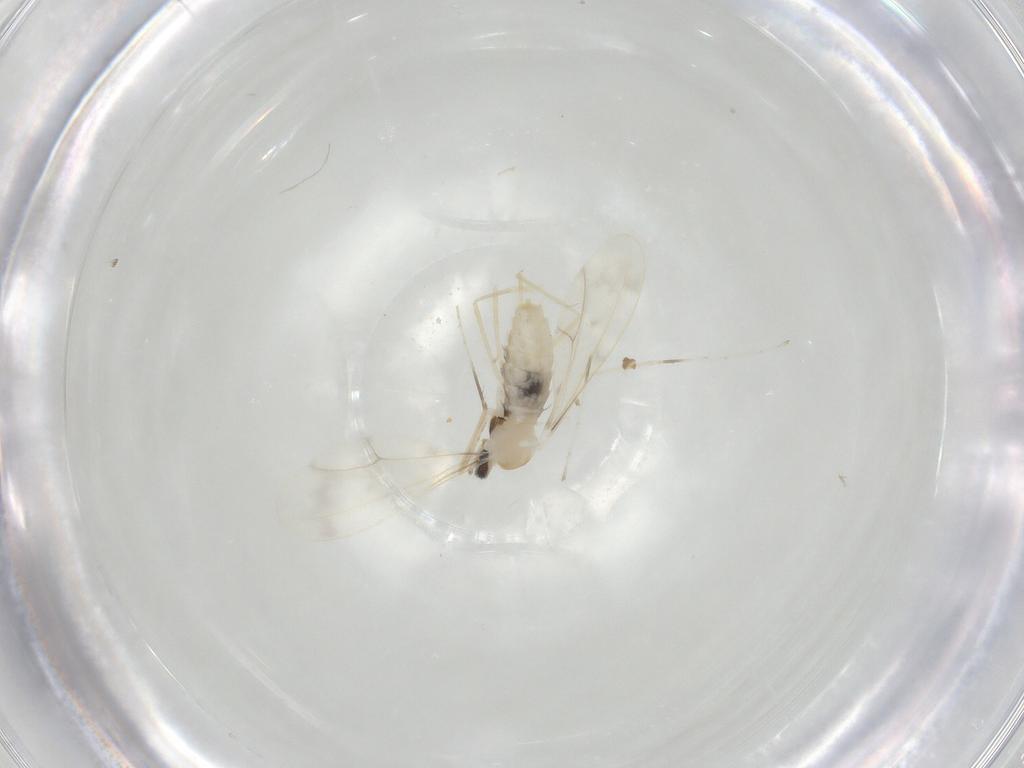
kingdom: Animalia
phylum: Arthropoda
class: Insecta
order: Diptera
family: Cecidomyiidae
